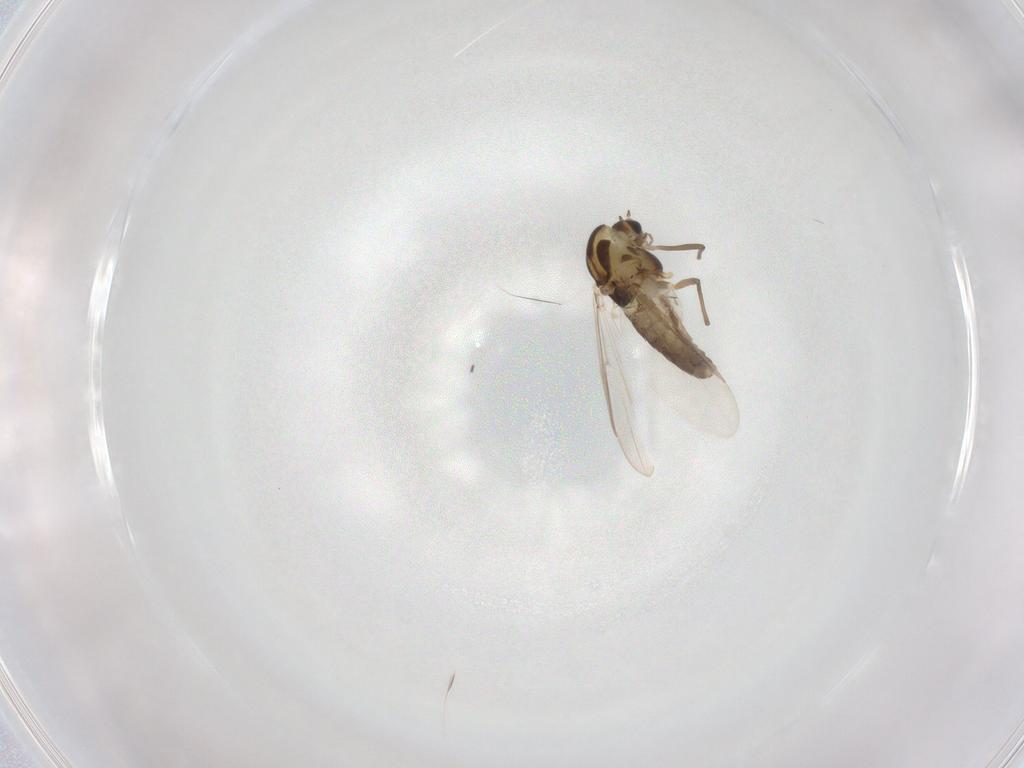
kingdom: Animalia
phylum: Arthropoda
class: Insecta
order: Diptera
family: Chironomidae
